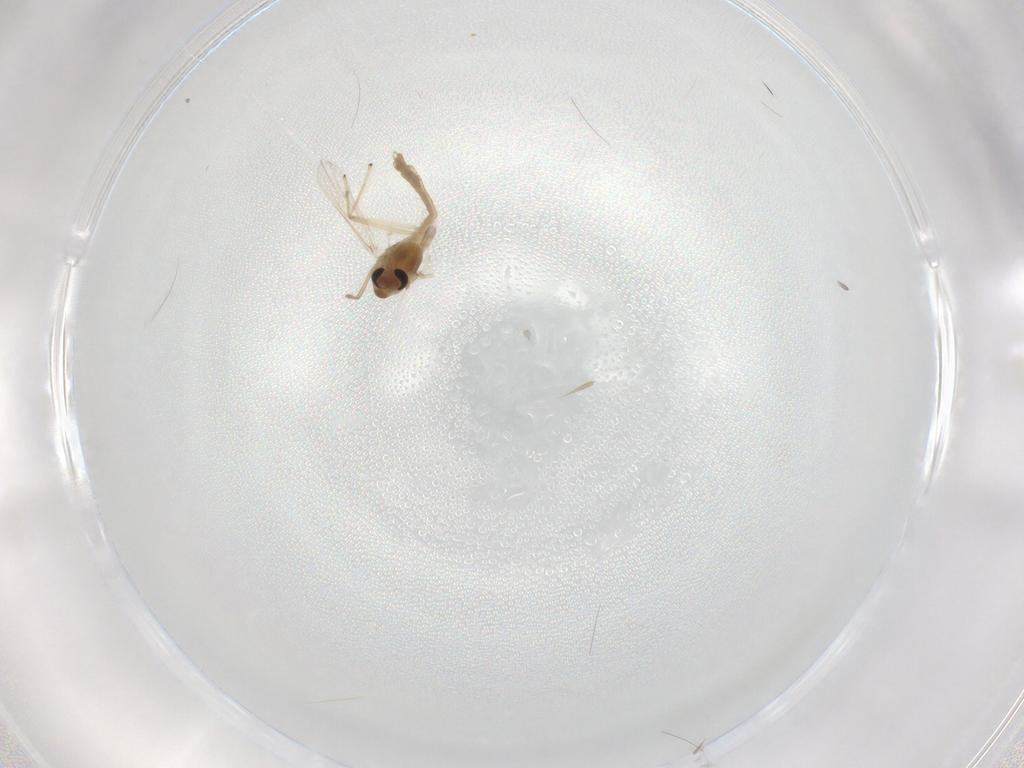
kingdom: Animalia
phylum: Arthropoda
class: Insecta
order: Diptera
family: Chironomidae
